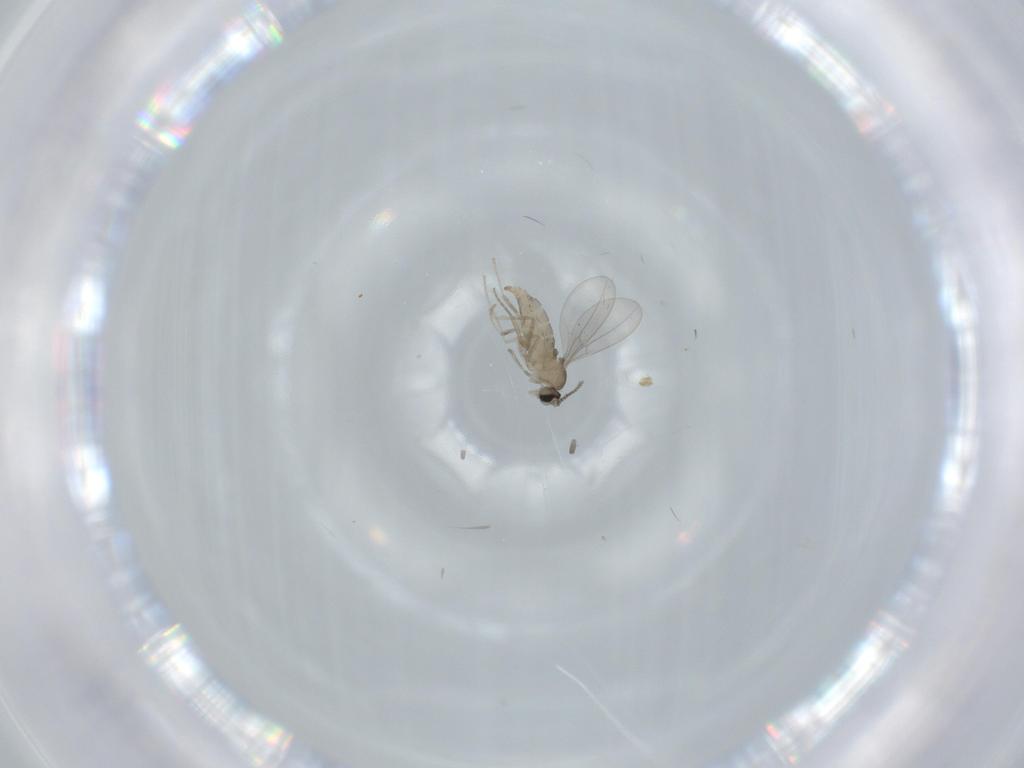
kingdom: Animalia
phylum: Arthropoda
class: Insecta
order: Diptera
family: Cecidomyiidae
